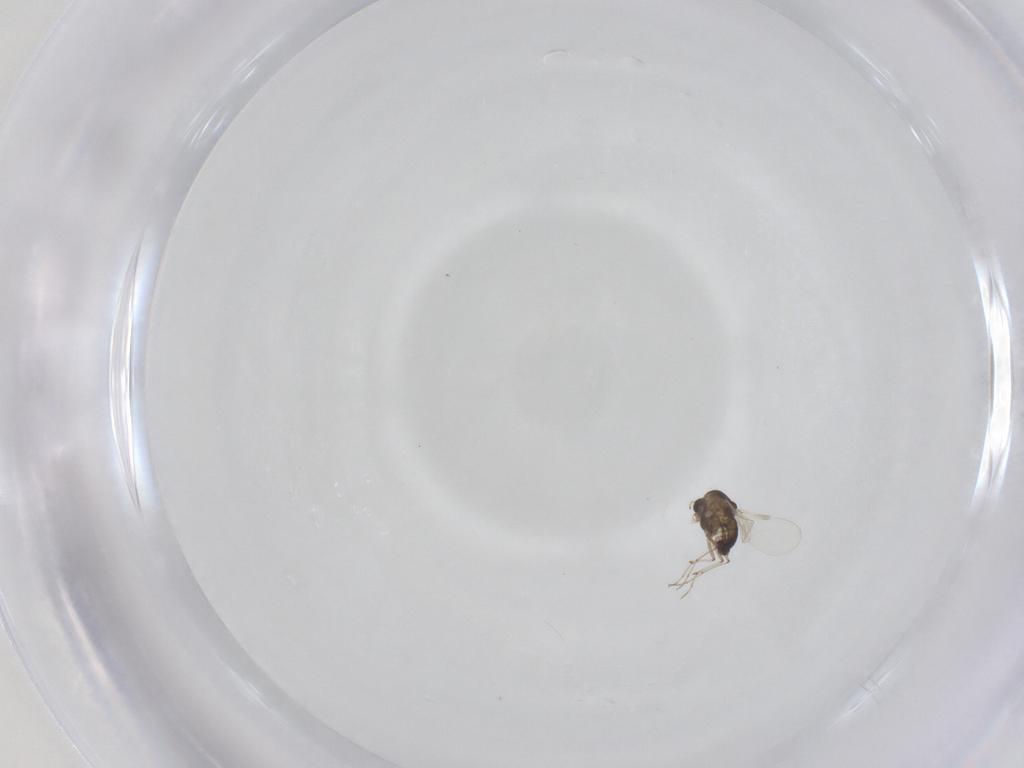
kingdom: Animalia
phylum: Arthropoda
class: Insecta
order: Diptera
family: Chironomidae
